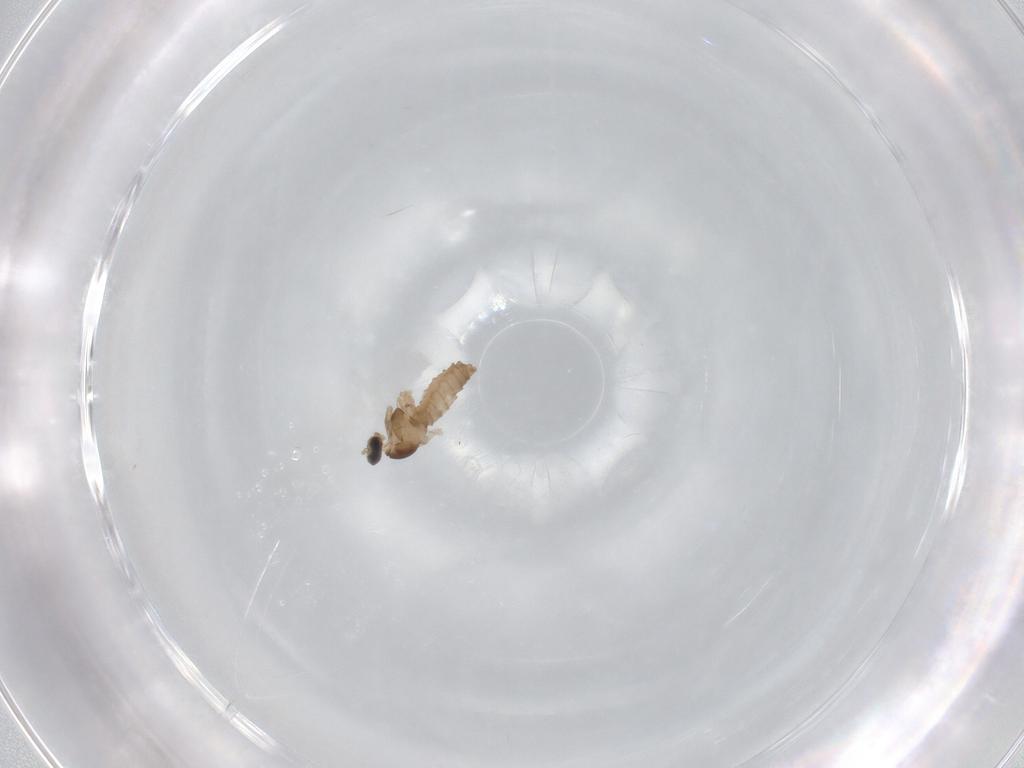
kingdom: Animalia
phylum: Arthropoda
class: Insecta
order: Diptera
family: Cecidomyiidae
